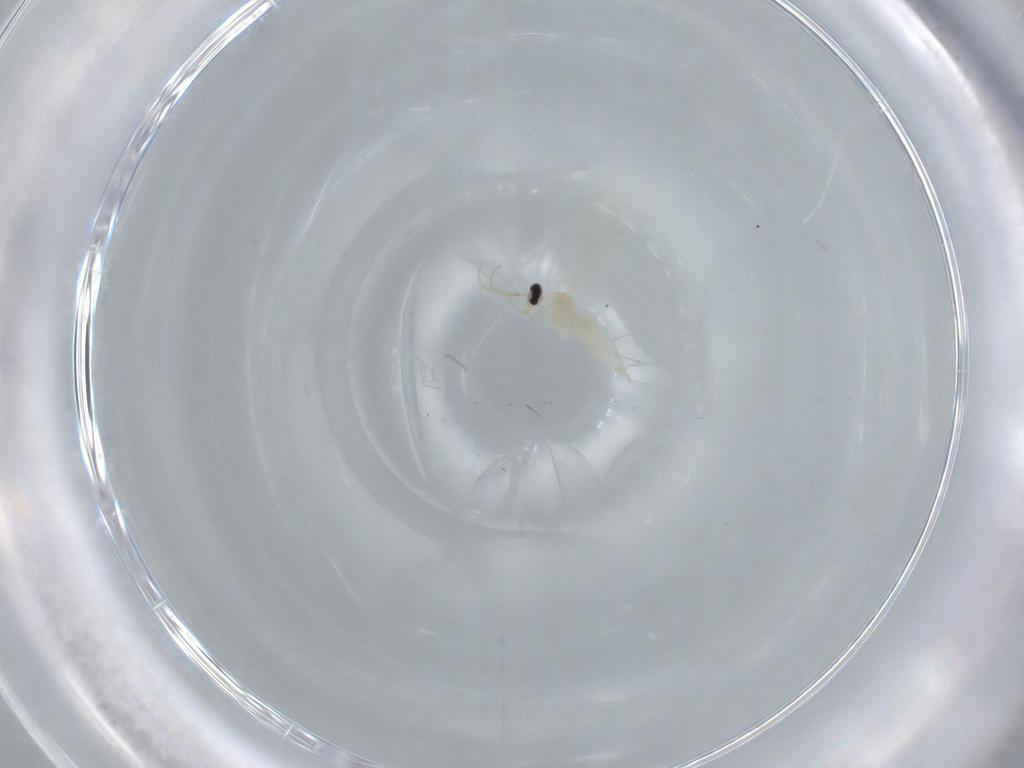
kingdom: Animalia
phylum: Arthropoda
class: Insecta
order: Diptera
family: Cecidomyiidae
